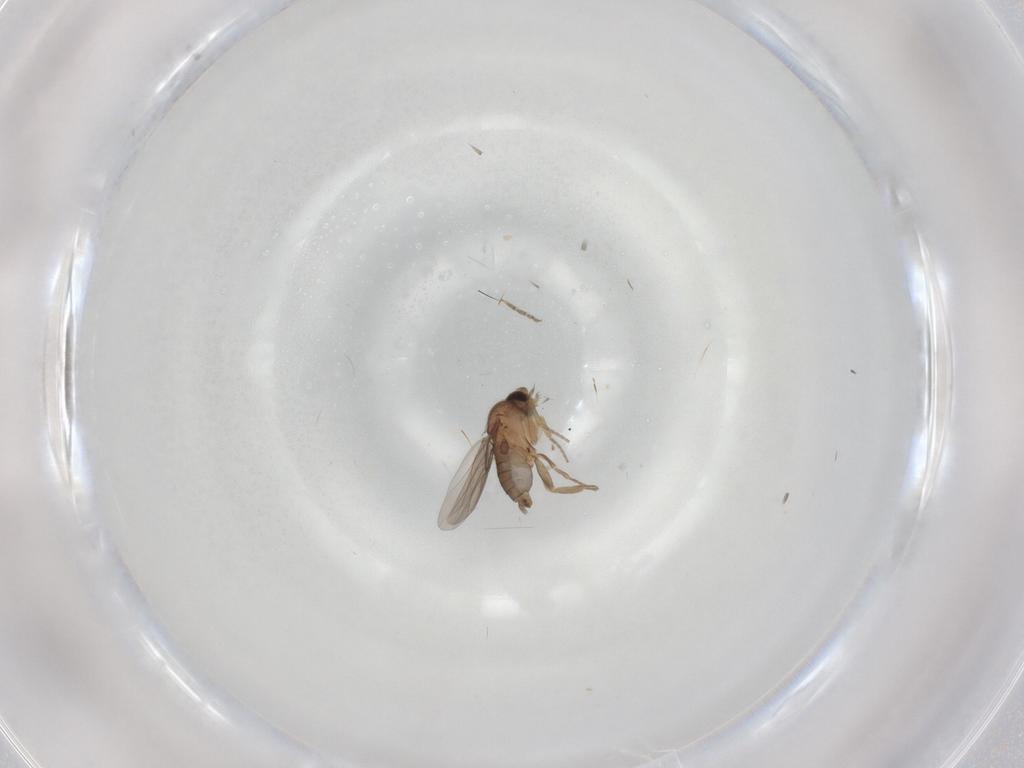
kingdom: Animalia
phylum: Arthropoda
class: Insecta
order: Diptera
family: Ceratopogonidae
